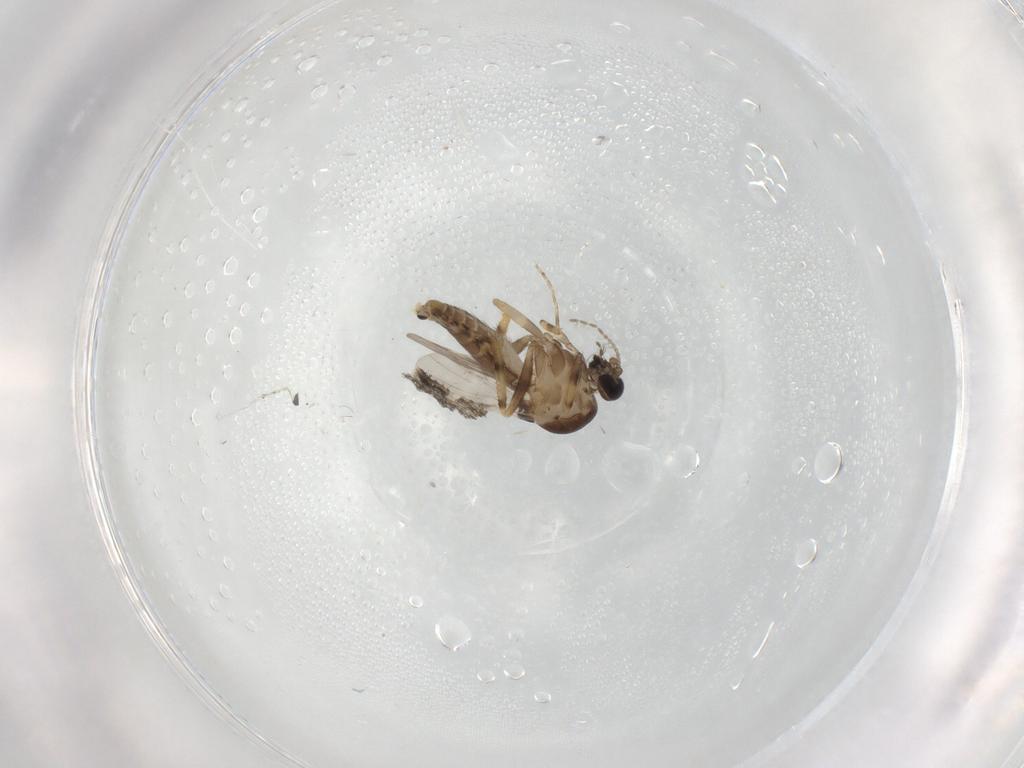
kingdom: Animalia
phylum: Arthropoda
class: Insecta
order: Diptera
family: Ceratopogonidae
